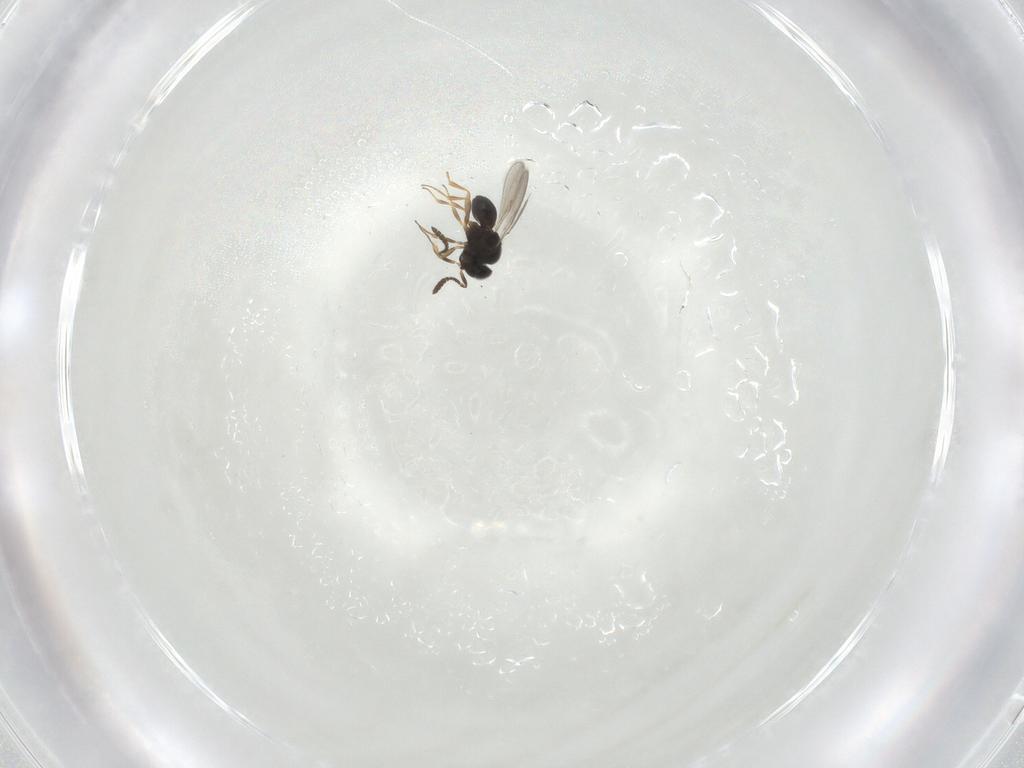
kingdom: Animalia
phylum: Arthropoda
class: Insecta
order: Hymenoptera
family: Scelionidae
